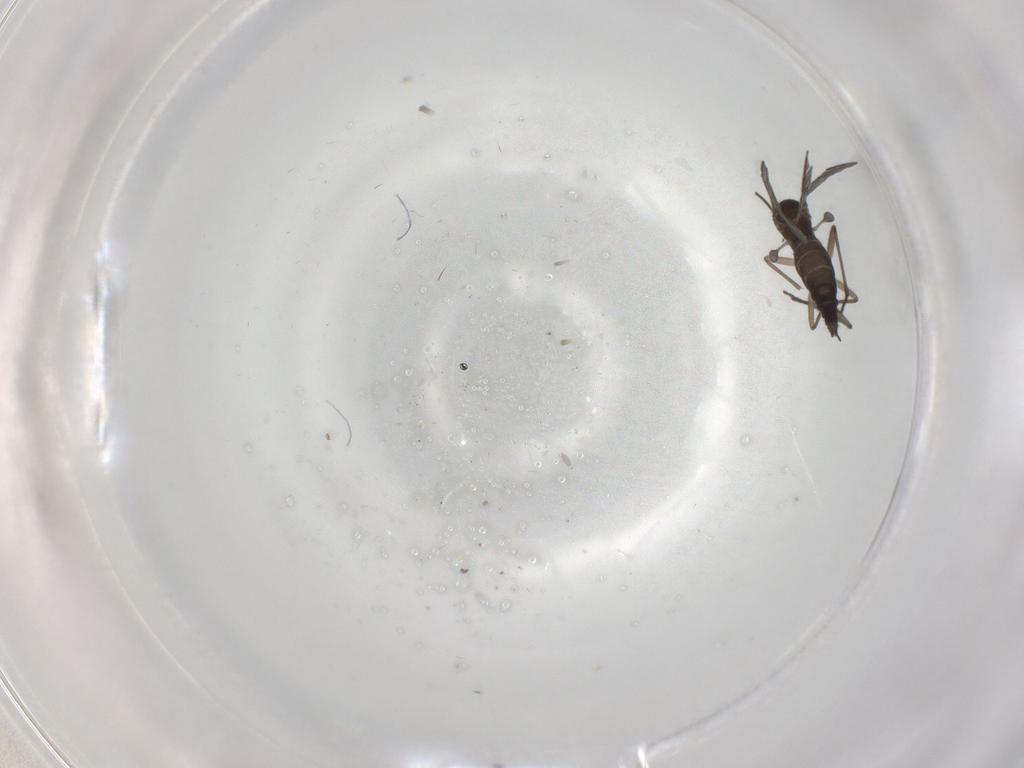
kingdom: Animalia
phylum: Arthropoda
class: Insecta
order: Diptera
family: Sciaridae
